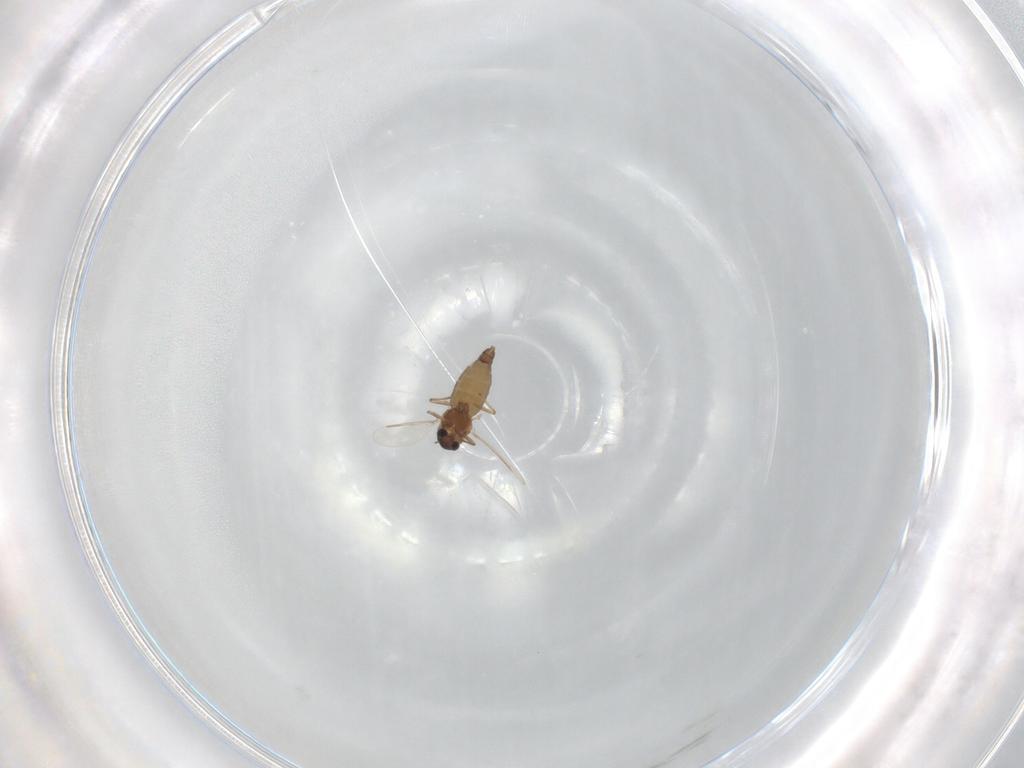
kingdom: Animalia
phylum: Arthropoda
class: Insecta
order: Diptera
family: Chironomidae
